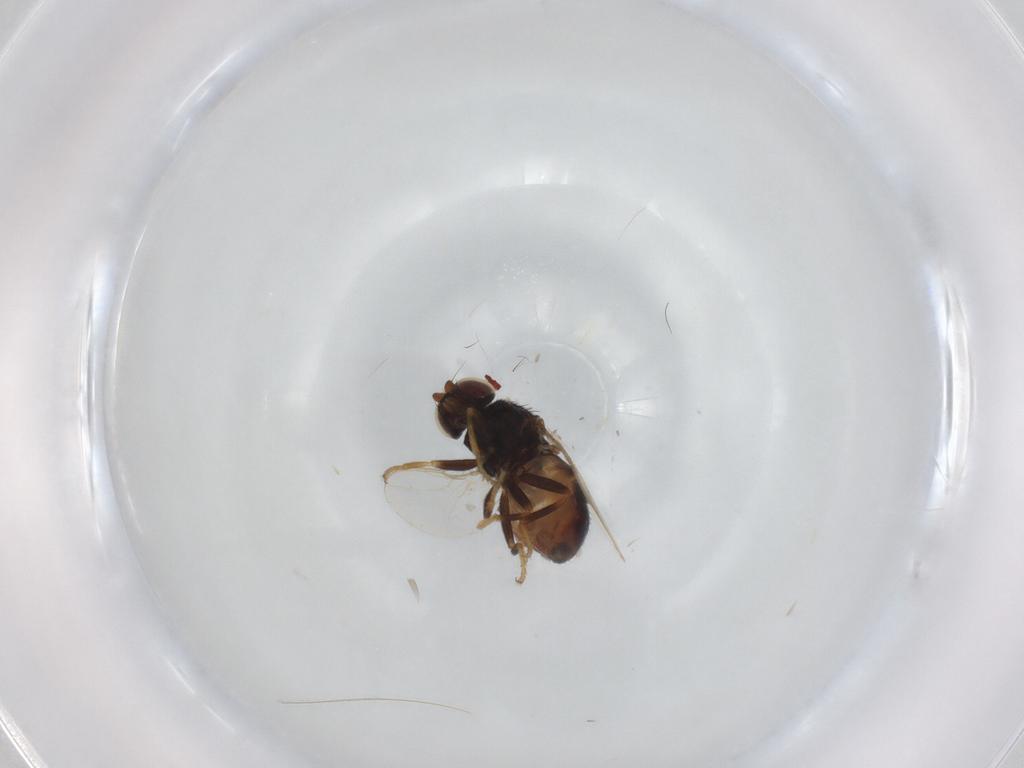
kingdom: Animalia
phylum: Arthropoda
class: Insecta
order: Diptera
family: Chloropidae
